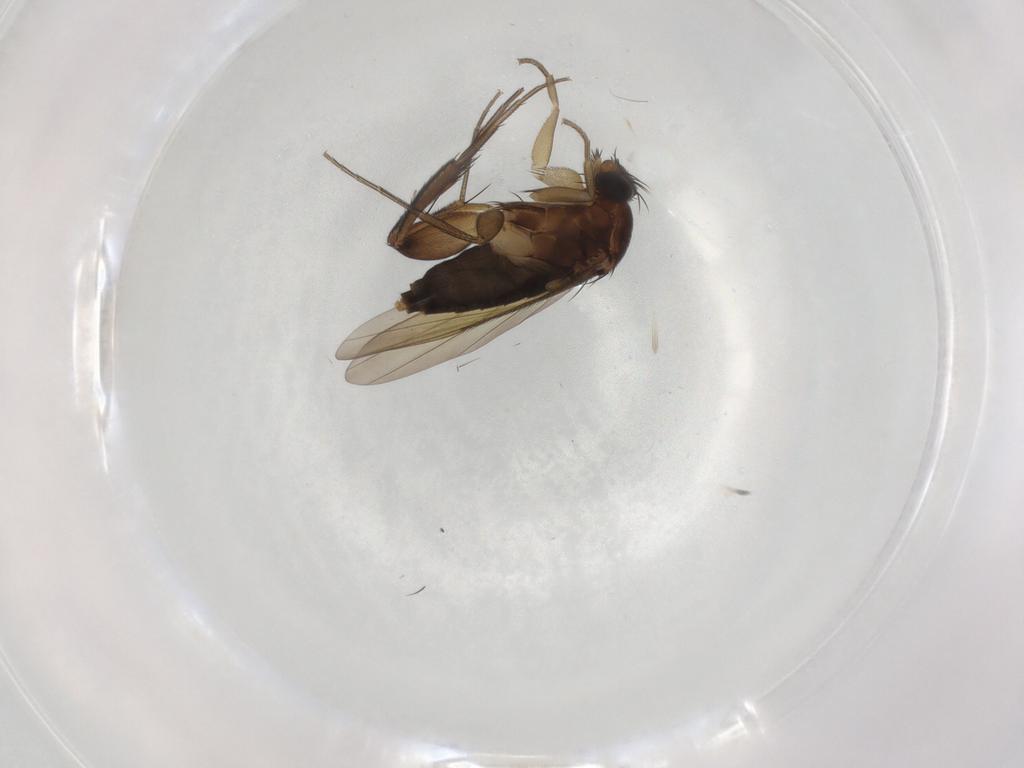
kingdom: Animalia
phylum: Arthropoda
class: Insecta
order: Diptera
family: Phoridae
